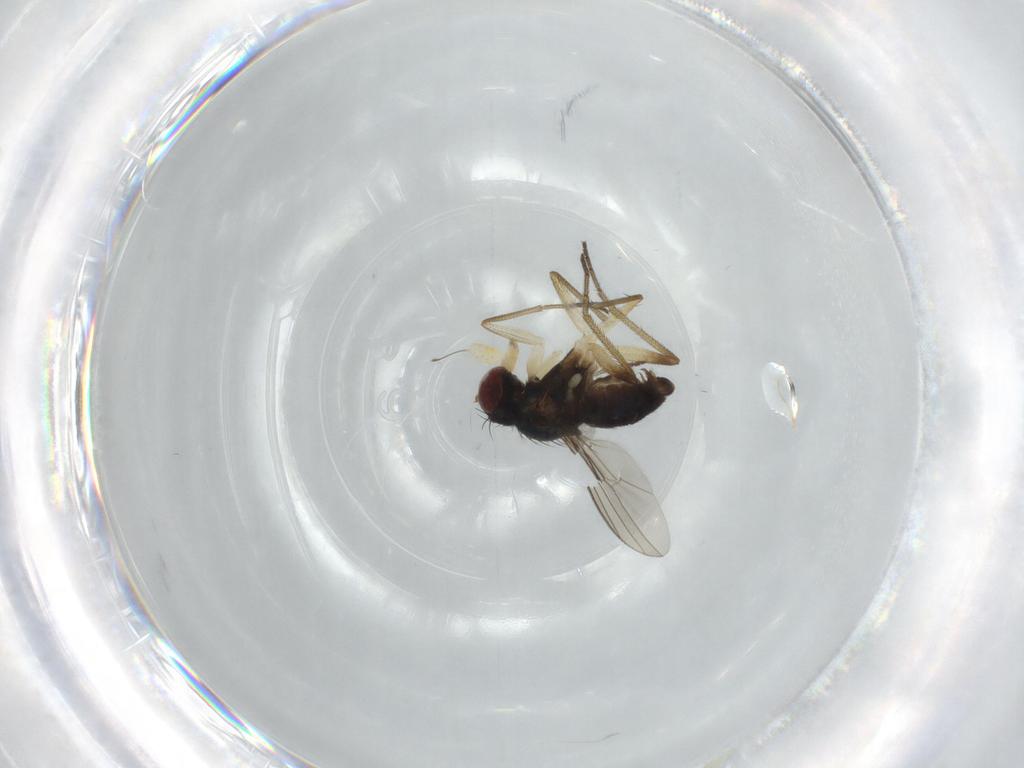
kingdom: Animalia
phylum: Arthropoda
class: Insecta
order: Diptera
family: Dolichopodidae
